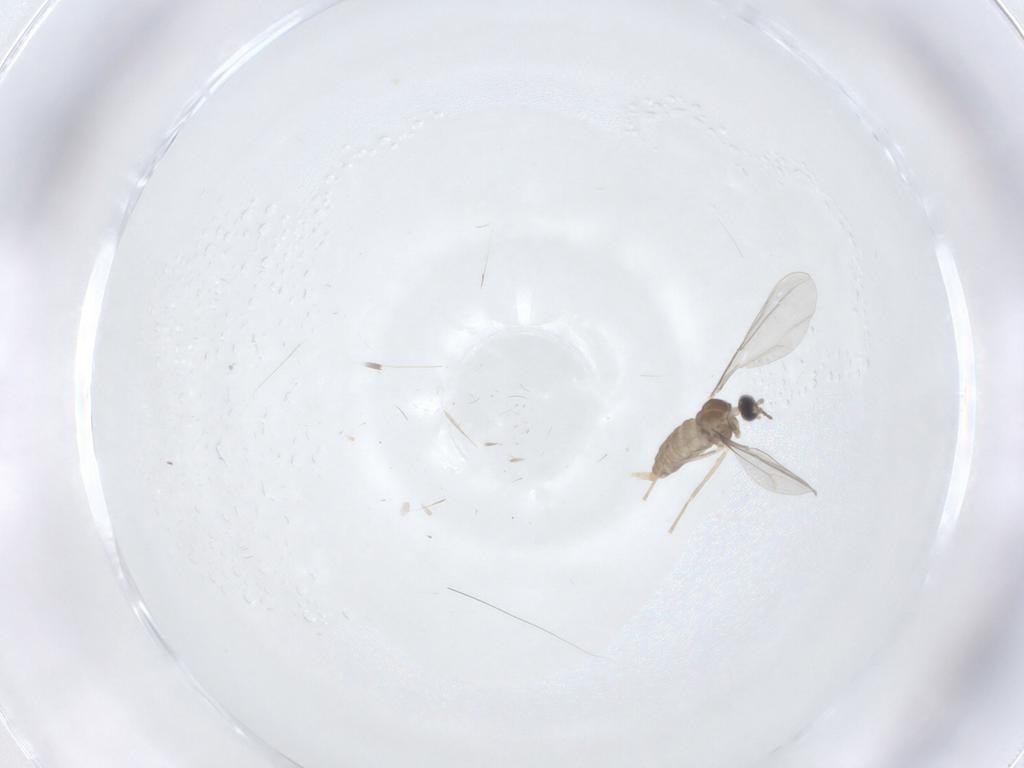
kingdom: Animalia
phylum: Arthropoda
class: Insecta
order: Diptera
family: Cecidomyiidae
